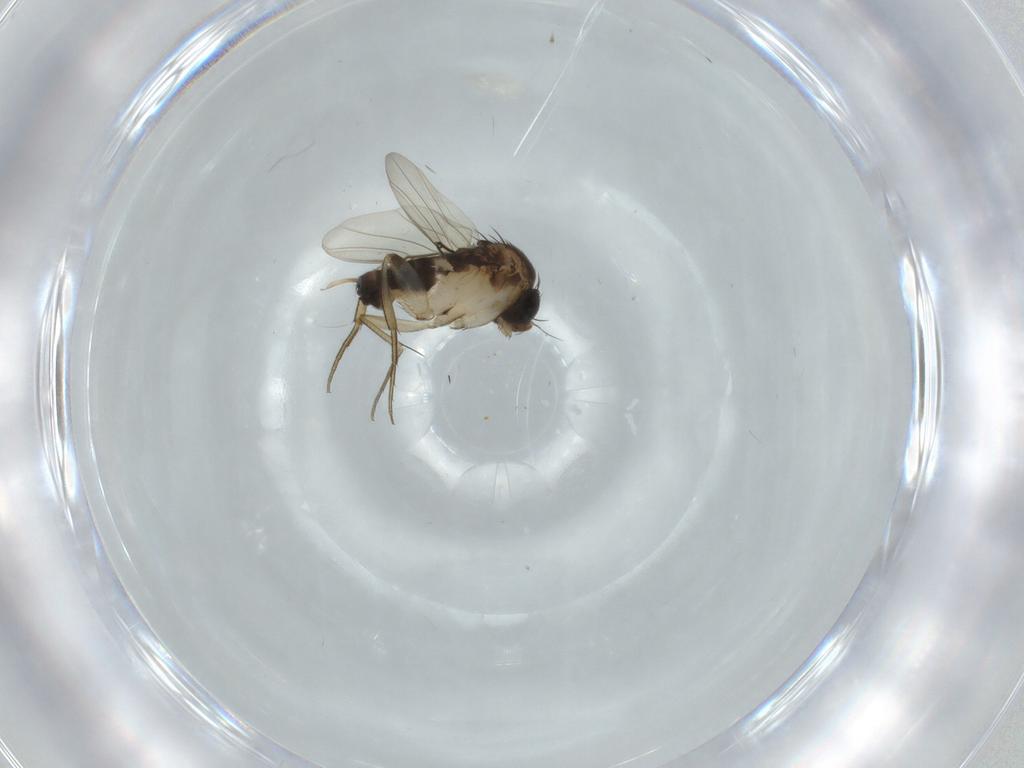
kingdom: Animalia
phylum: Arthropoda
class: Insecta
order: Diptera
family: Phoridae
